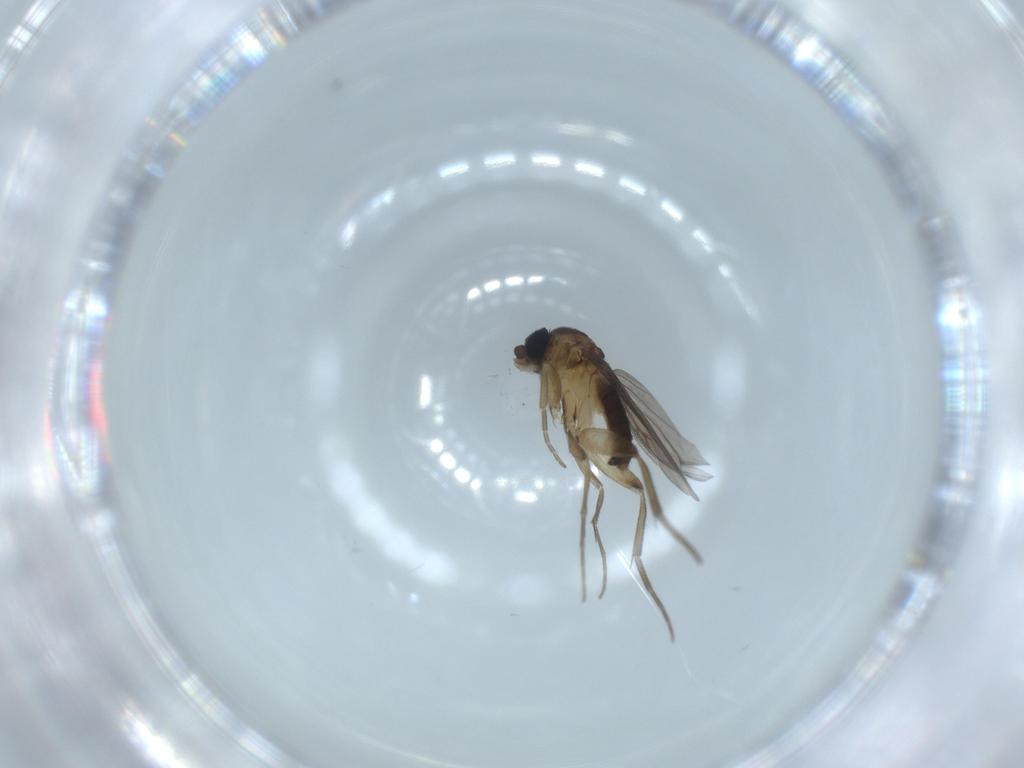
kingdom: Animalia
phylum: Arthropoda
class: Insecta
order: Diptera
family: Phoridae
